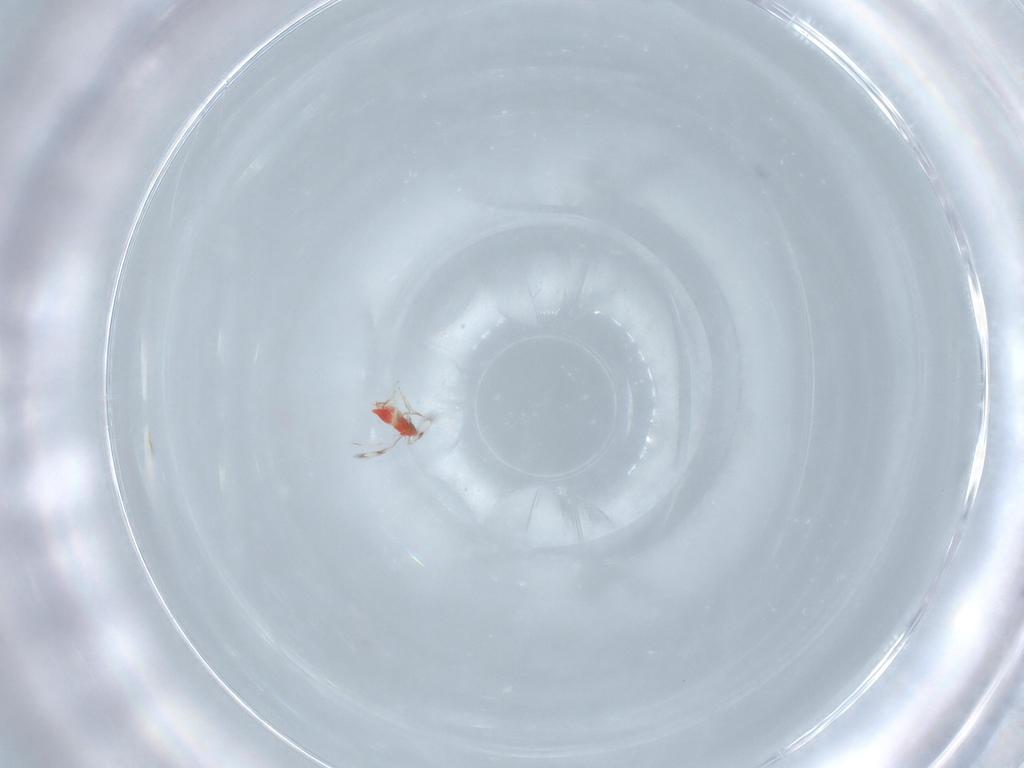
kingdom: Animalia
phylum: Arthropoda
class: Insecta
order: Hymenoptera
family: Trichogrammatidae
